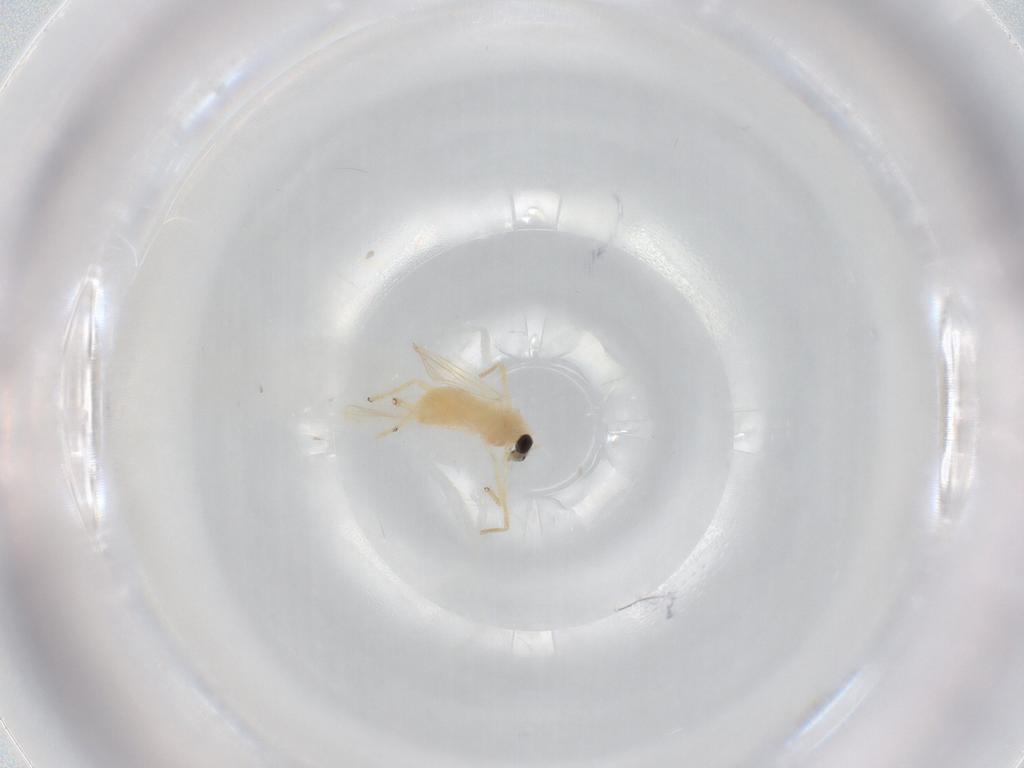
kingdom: Animalia
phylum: Arthropoda
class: Insecta
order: Diptera
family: Chironomidae
